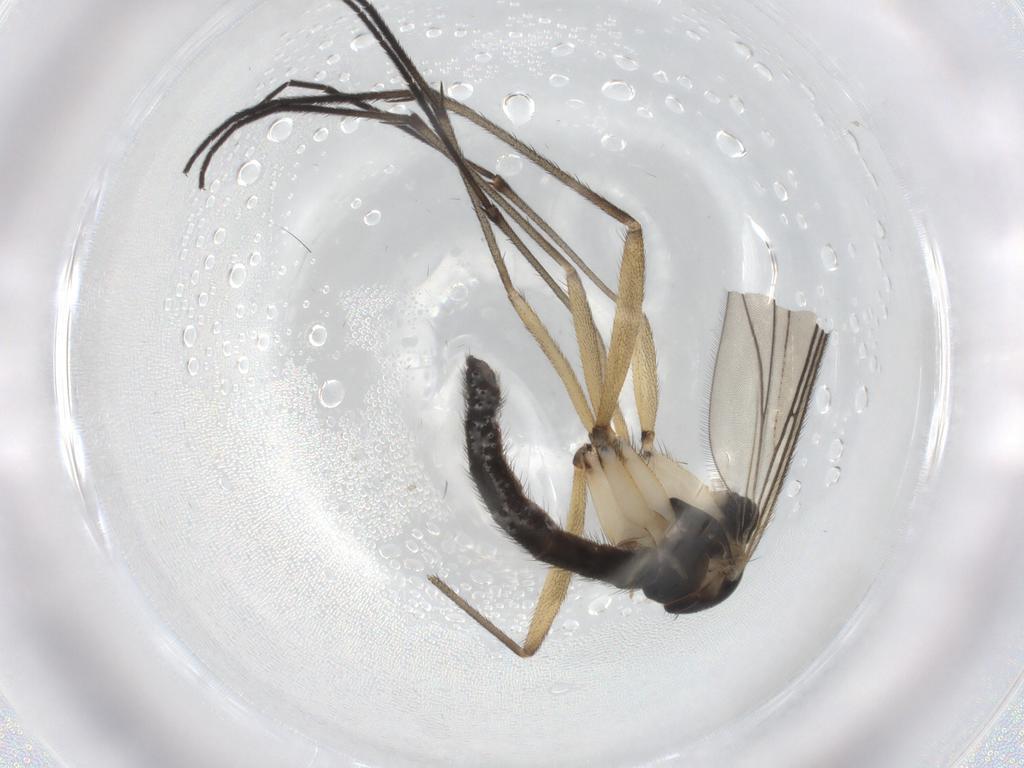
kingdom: Animalia
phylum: Arthropoda
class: Insecta
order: Diptera
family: Sciaridae
